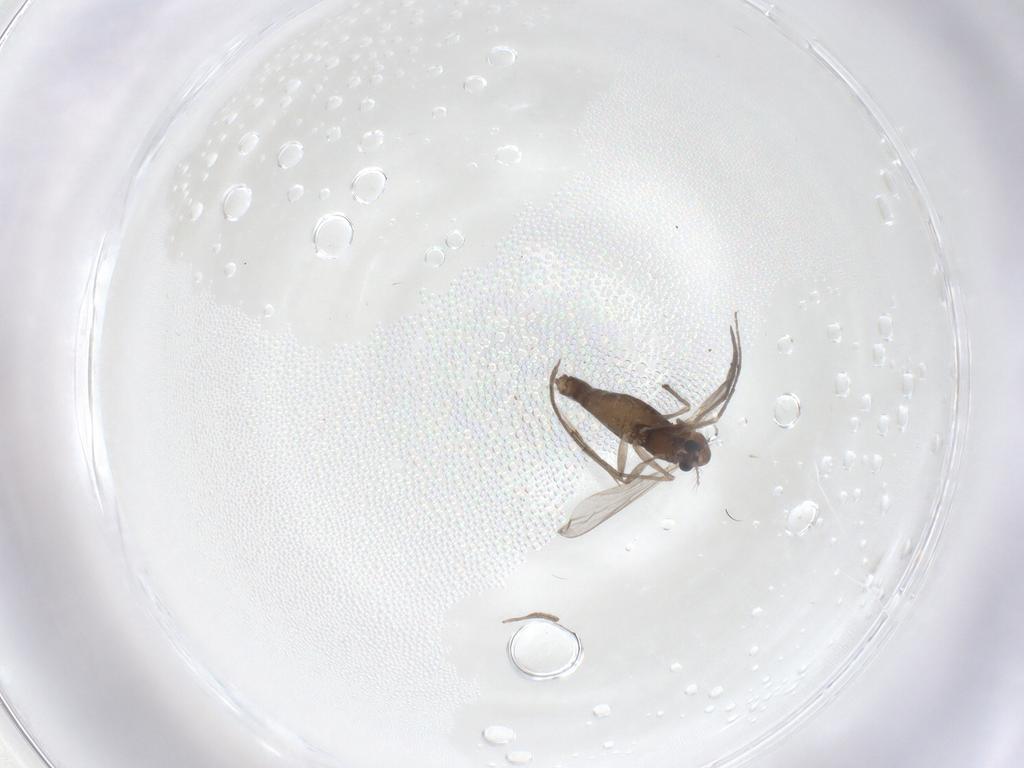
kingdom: Animalia
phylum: Arthropoda
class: Insecta
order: Diptera
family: Chironomidae
